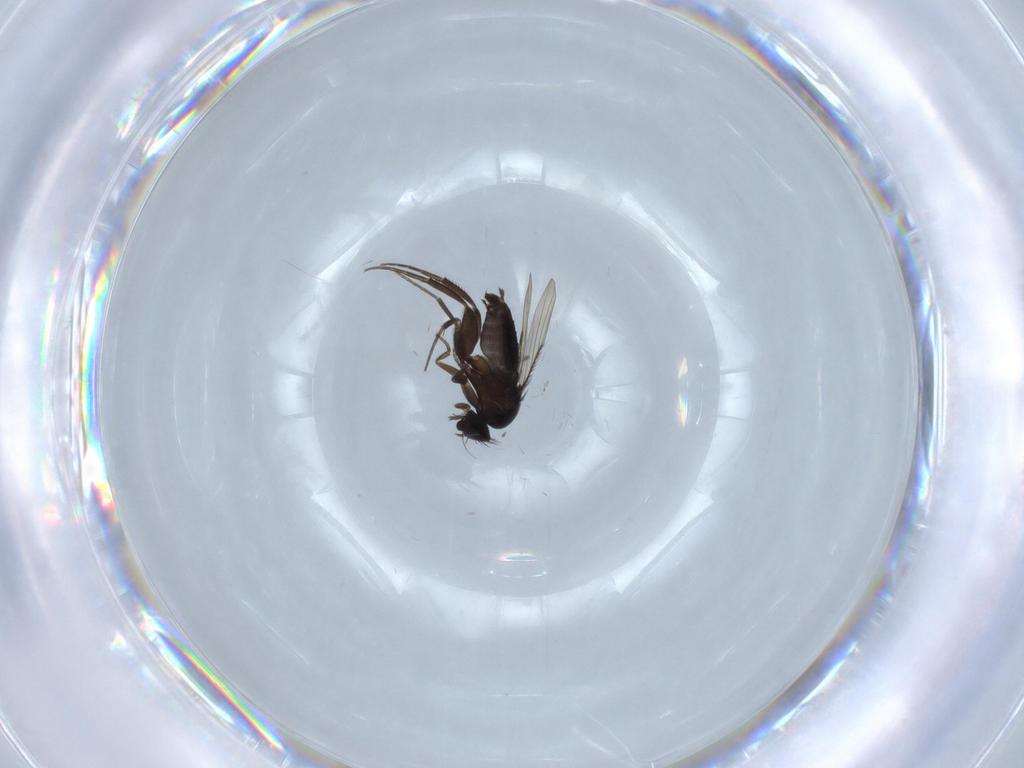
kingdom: Animalia
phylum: Arthropoda
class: Insecta
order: Diptera
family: Phoridae
